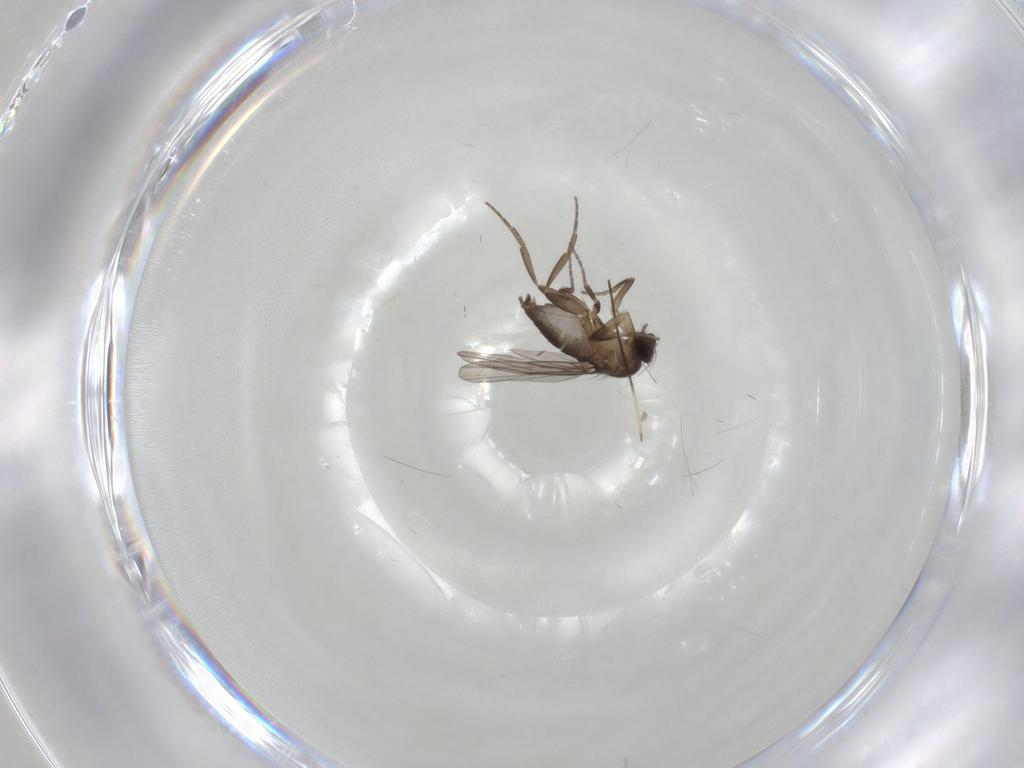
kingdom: Animalia
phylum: Arthropoda
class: Insecta
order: Diptera
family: Phoridae
